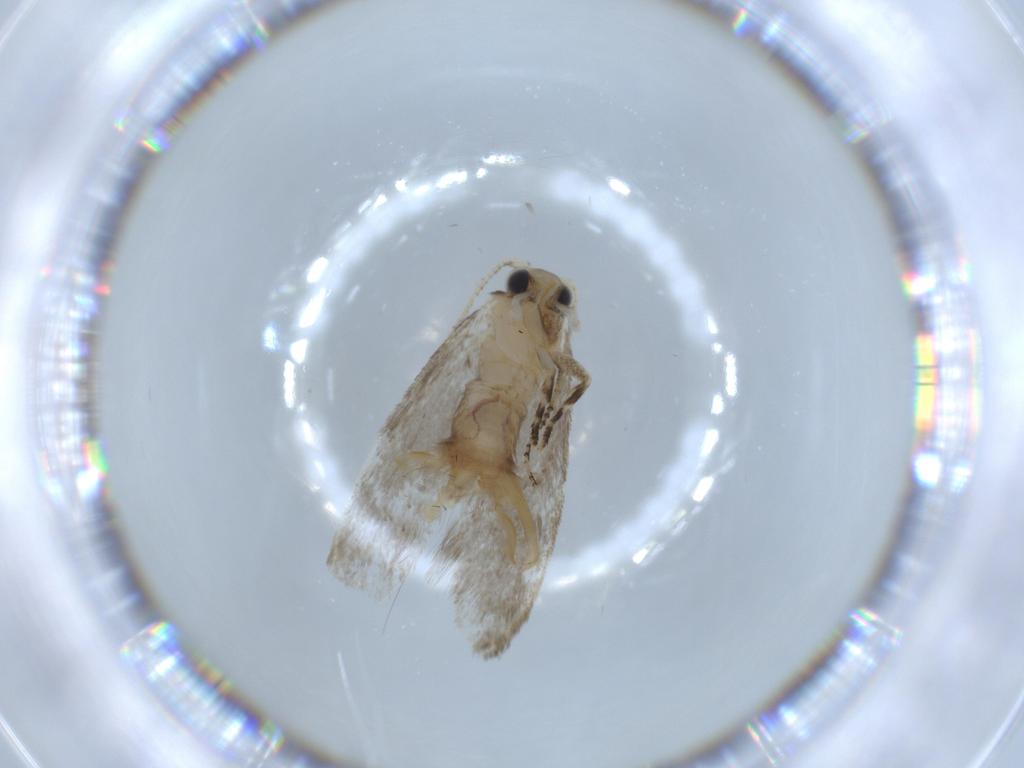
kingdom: Animalia
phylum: Arthropoda
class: Insecta
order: Lepidoptera
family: Tineidae
